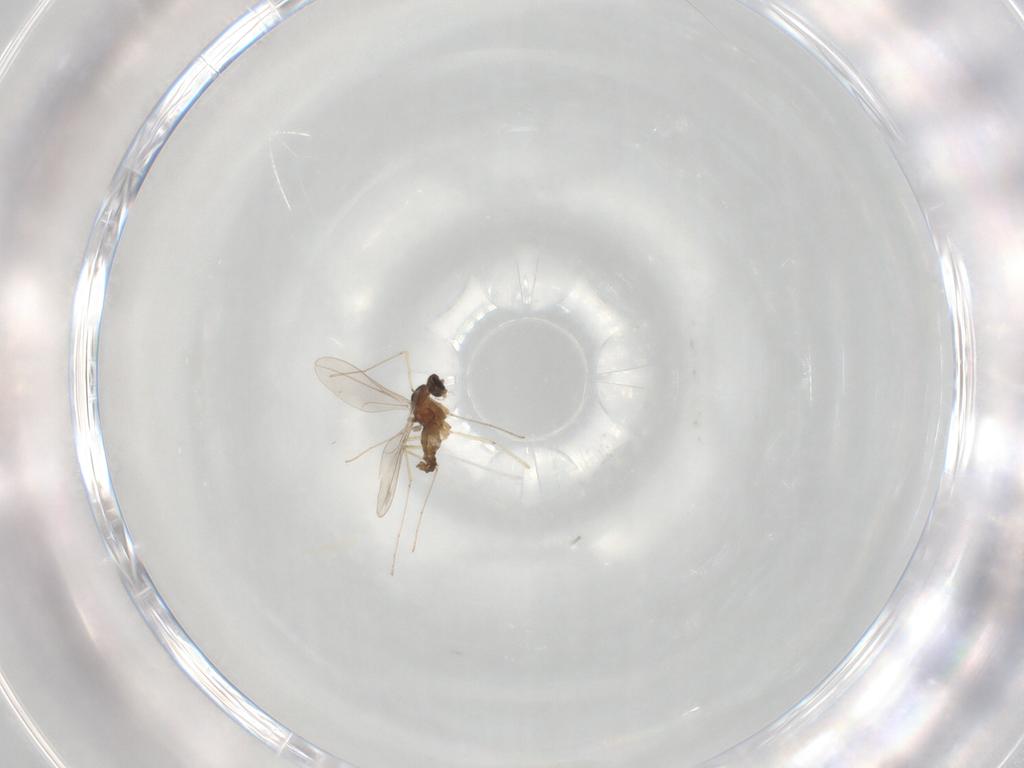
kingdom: Animalia
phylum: Arthropoda
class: Insecta
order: Diptera
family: Cecidomyiidae
